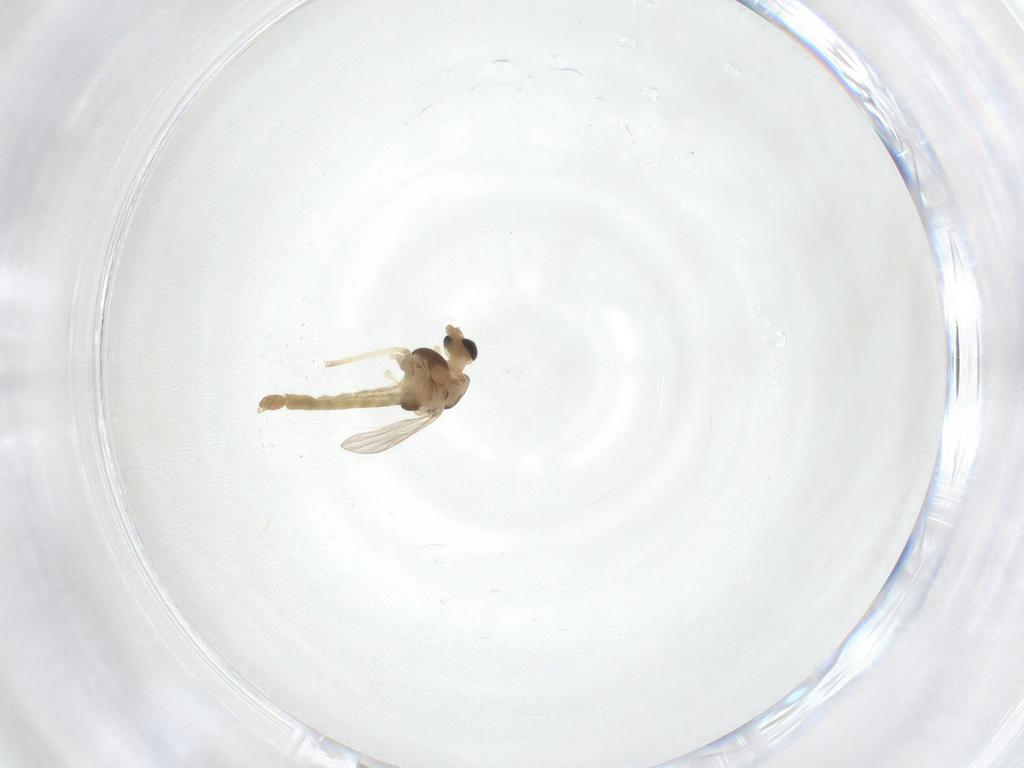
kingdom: Animalia
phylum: Arthropoda
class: Insecta
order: Diptera
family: Chironomidae
